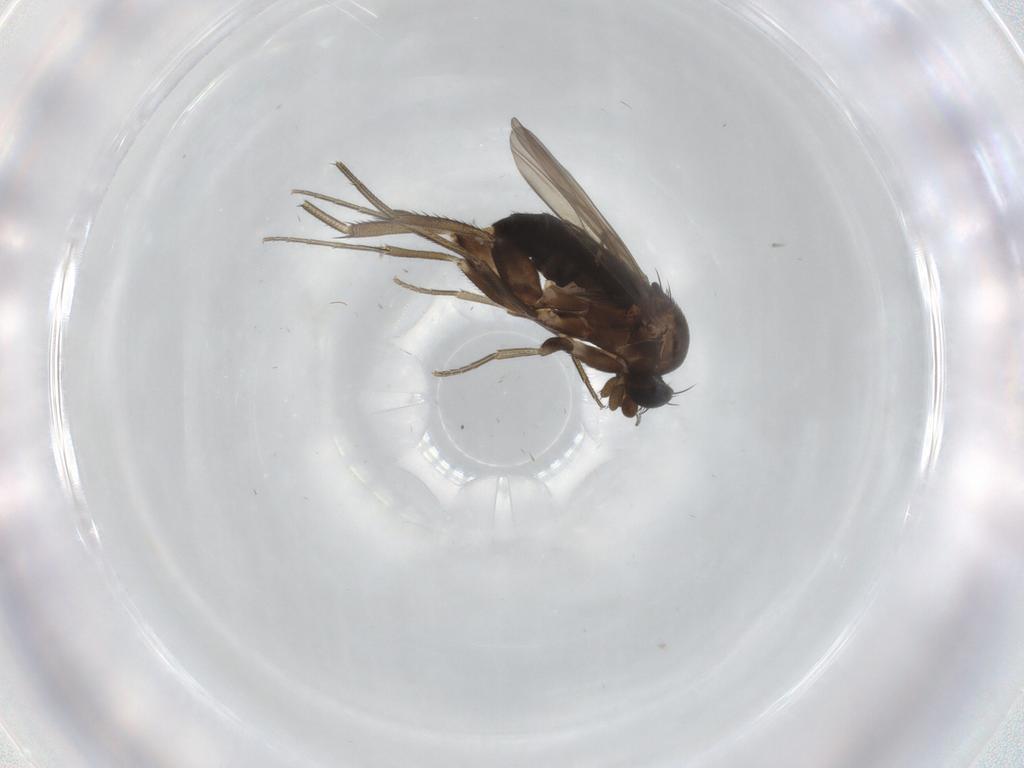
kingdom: Animalia
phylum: Arthropoda
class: Insecta
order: Diptera
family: Phoridae
